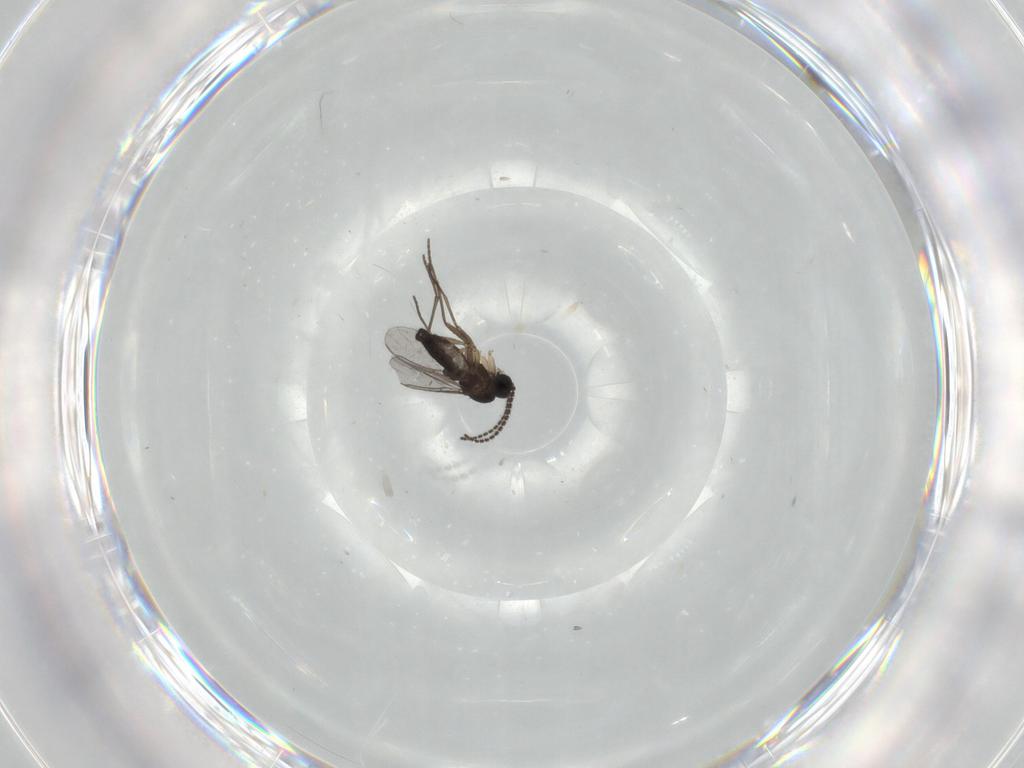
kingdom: Animalia
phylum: Arthropoda
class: Insecta
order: Diptera
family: Sciaridae
